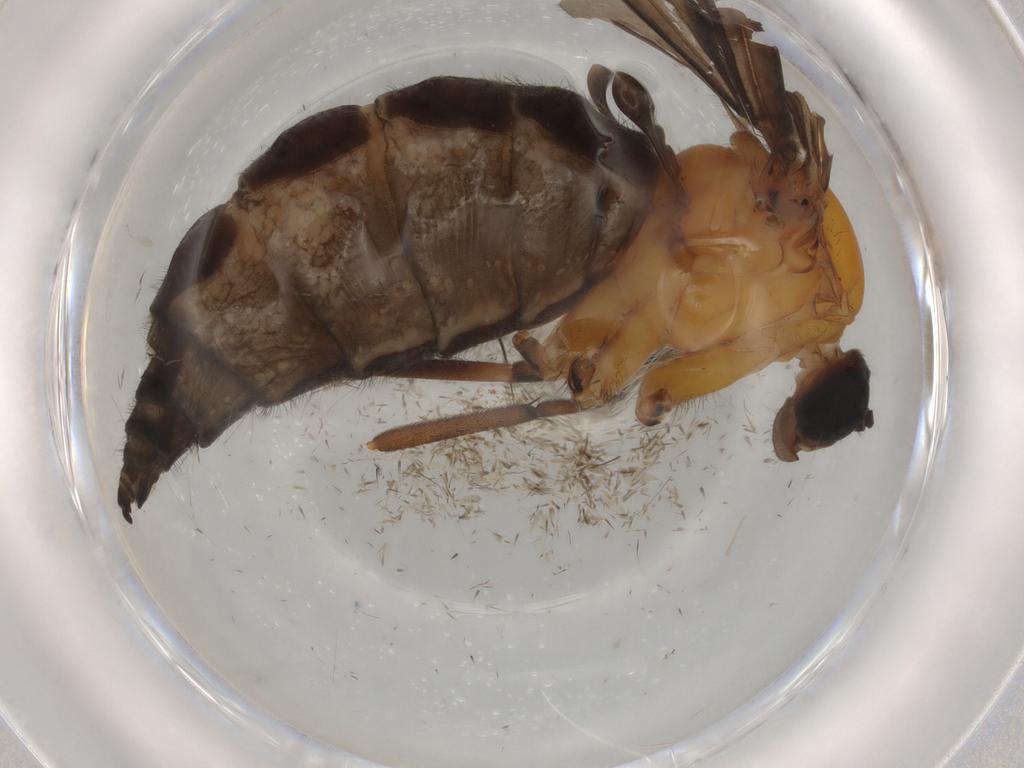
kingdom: Animalia
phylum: Arthropoda
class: Insecta
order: Diptera
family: Sciaridae
